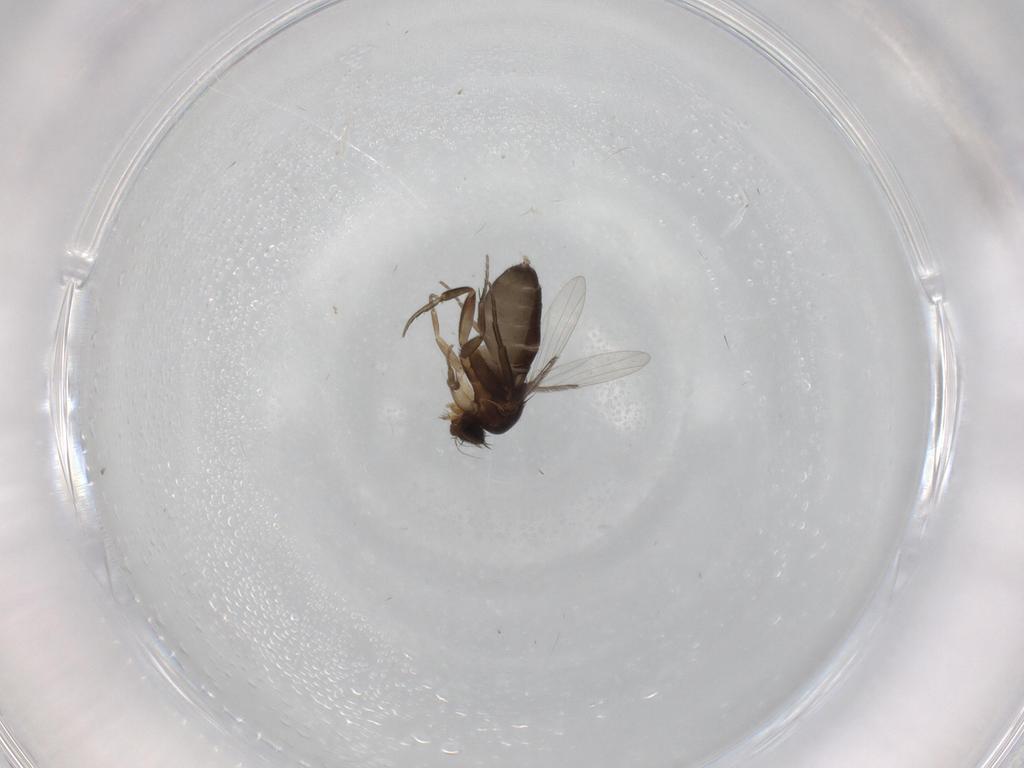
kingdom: Animalia
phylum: Arthropoda
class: Insecta
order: Diptera
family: Phoridae
